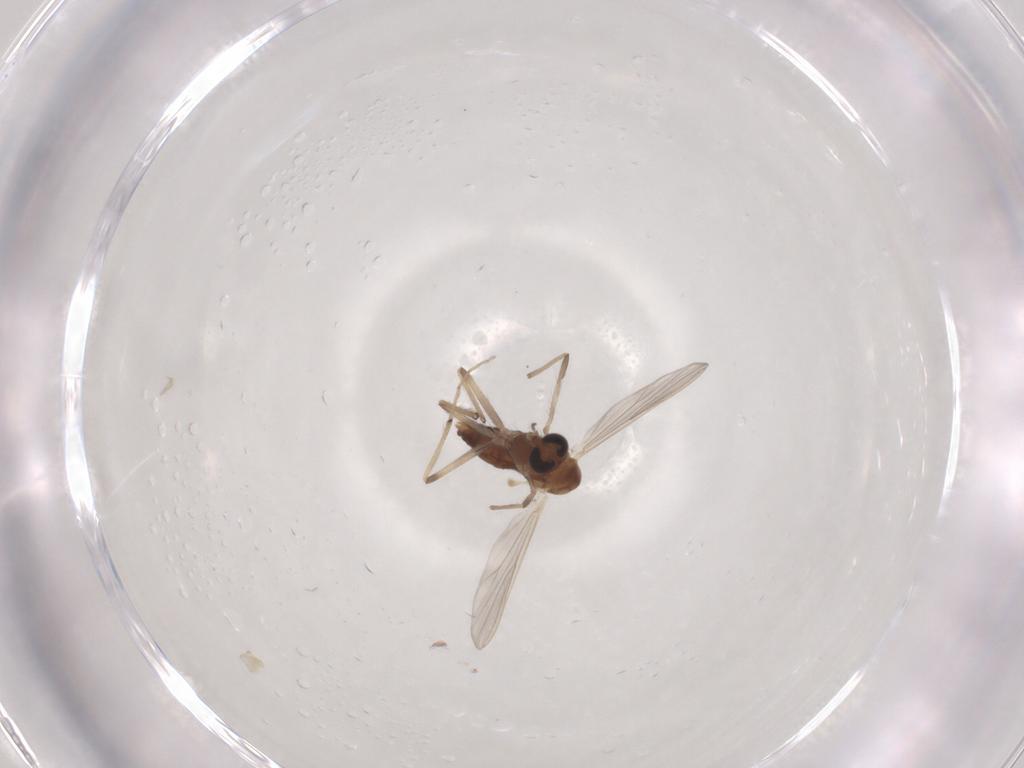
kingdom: Animalia
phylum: Arthropoda
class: Insecta
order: Diptera
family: Chironomidae
